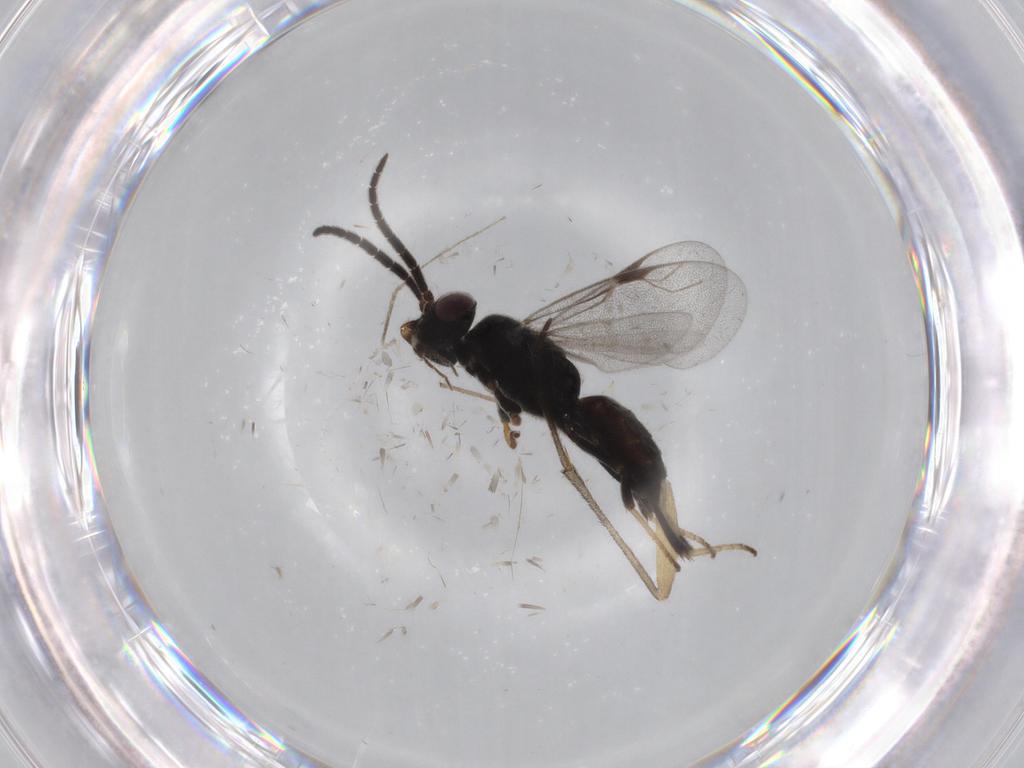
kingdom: Animalia
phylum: Arthropoda
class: Insecta
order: Hymenoptera
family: Dryinidae
